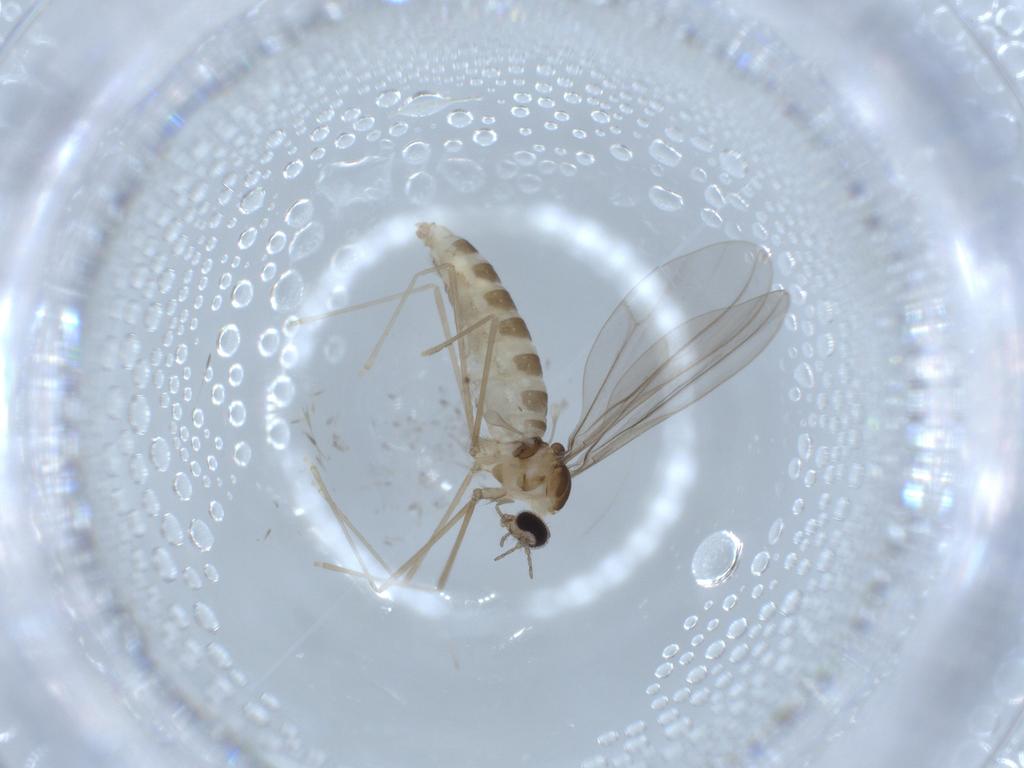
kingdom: Animalia
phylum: Arthropoda
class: Insecta
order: Diptera
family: Cecidomyiidae
